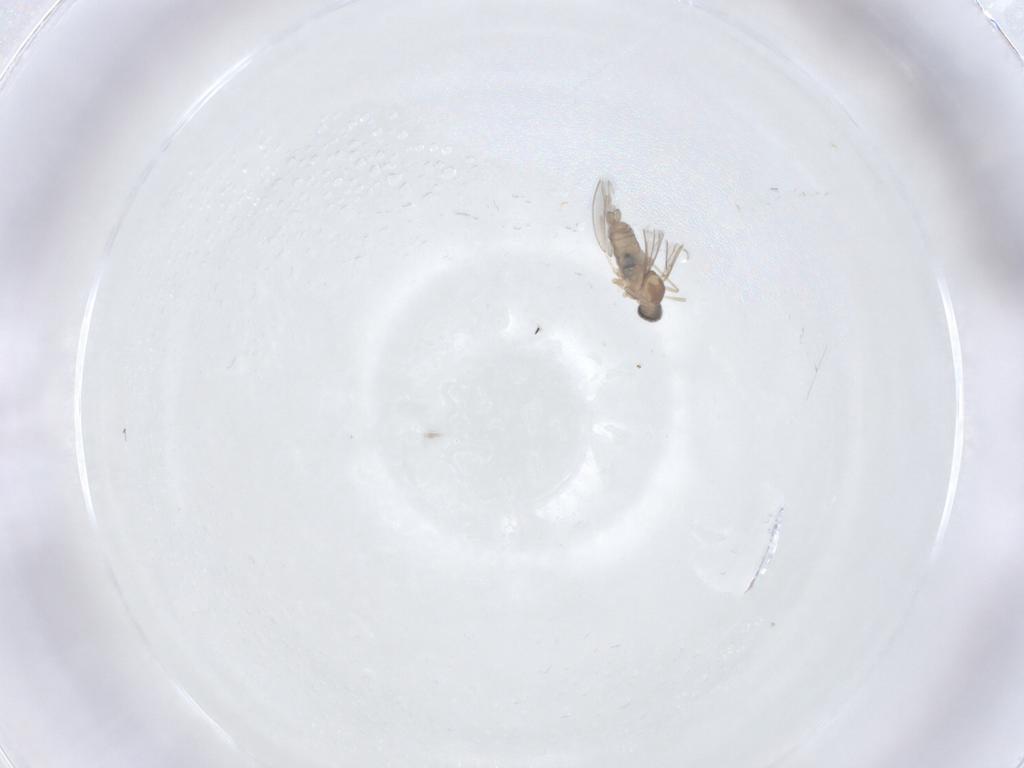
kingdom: Animalia
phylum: Arthropoda
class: Insecta
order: Diptera
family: Cecidomyiidae
